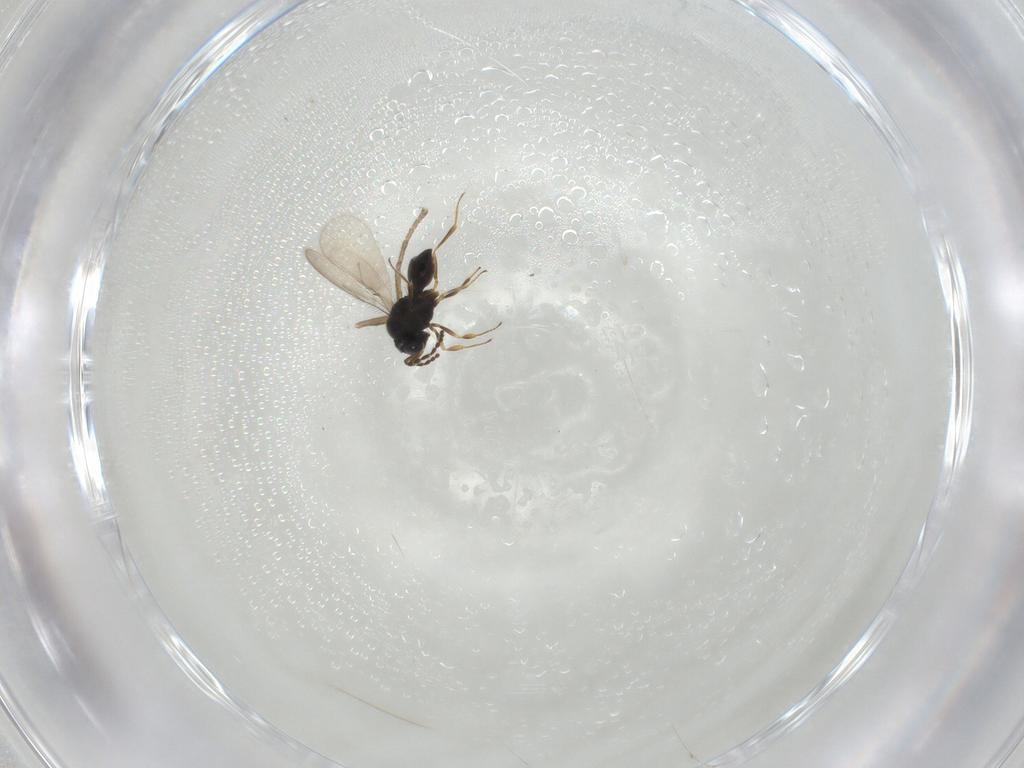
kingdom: Animalia
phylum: Arthropoda
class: Insecta
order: Hymenoptera
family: Scelionidae
